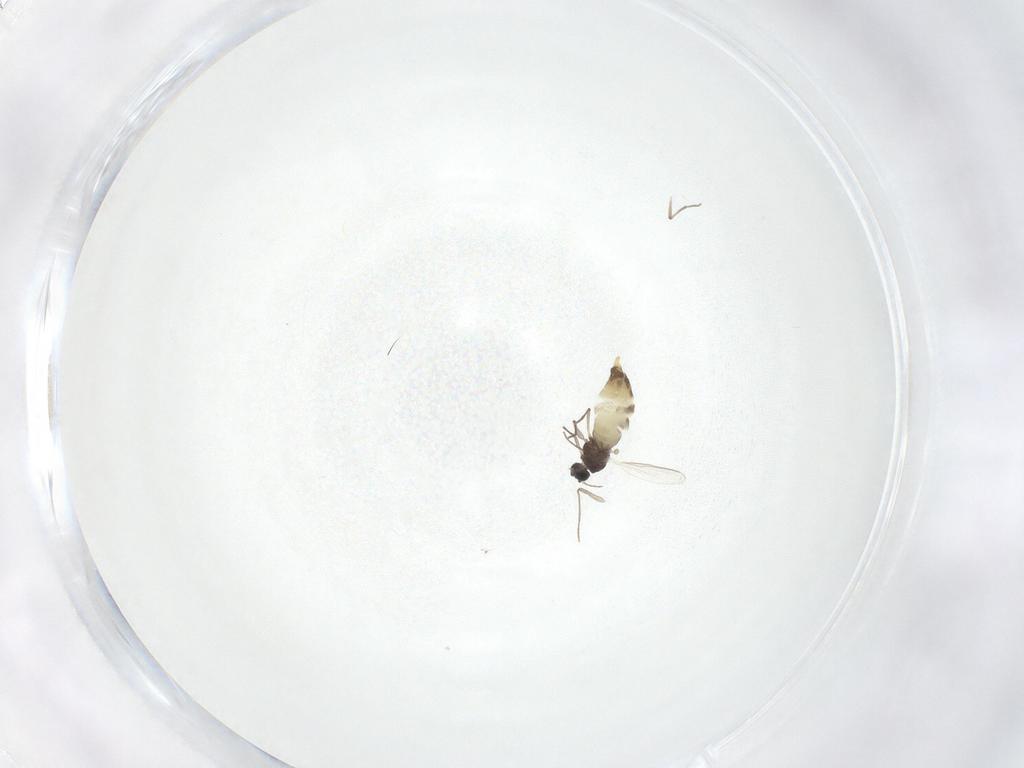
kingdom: Animalia
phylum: Arthropoda
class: Insecta
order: Diptera
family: Chironomidae
